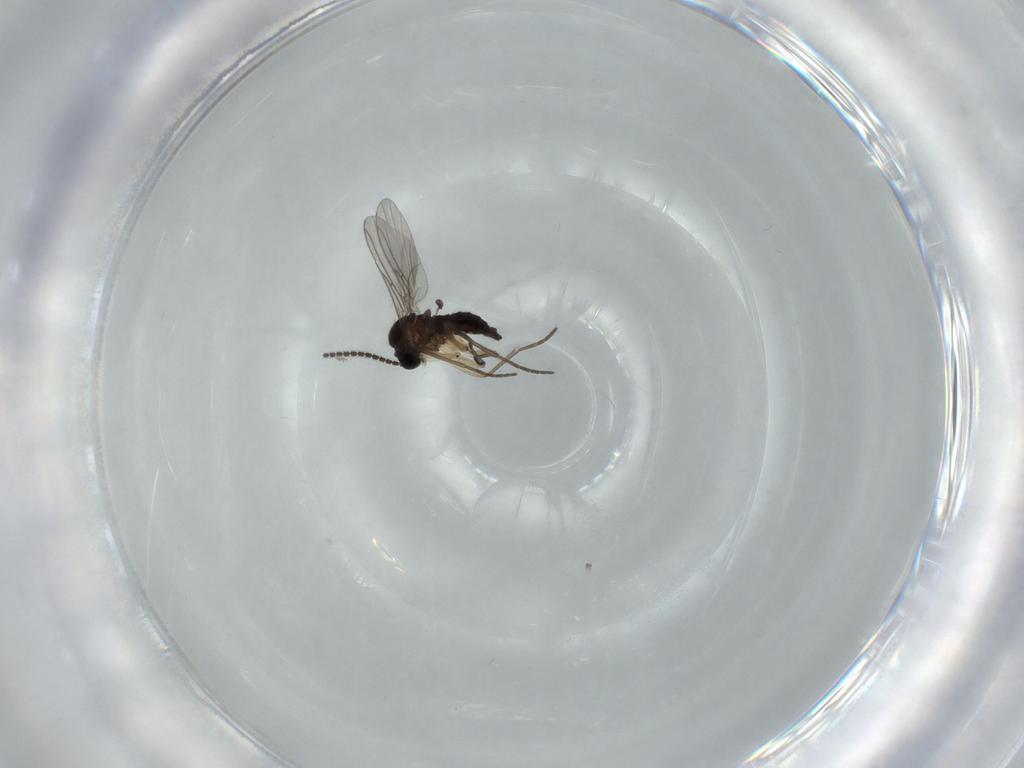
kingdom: Animalia
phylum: Arthropoda
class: Insecta
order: Diptera
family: Sciaridae
